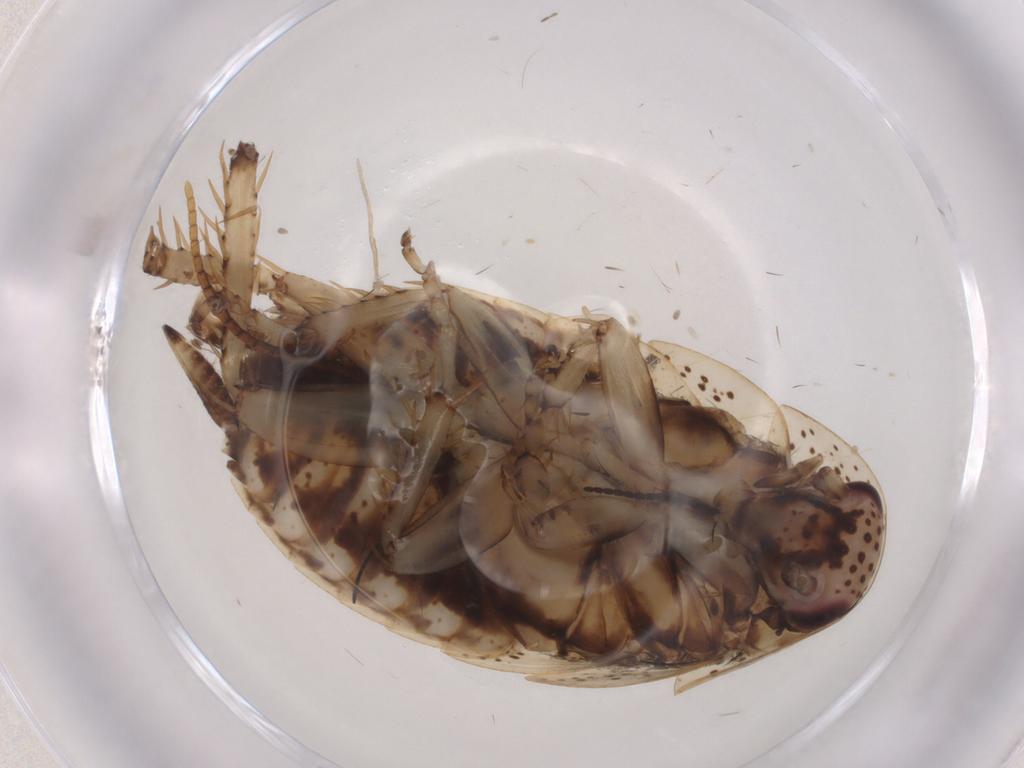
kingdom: Animalia
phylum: Arthropoda
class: Insecta
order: Blattodea
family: Ectobiidae
